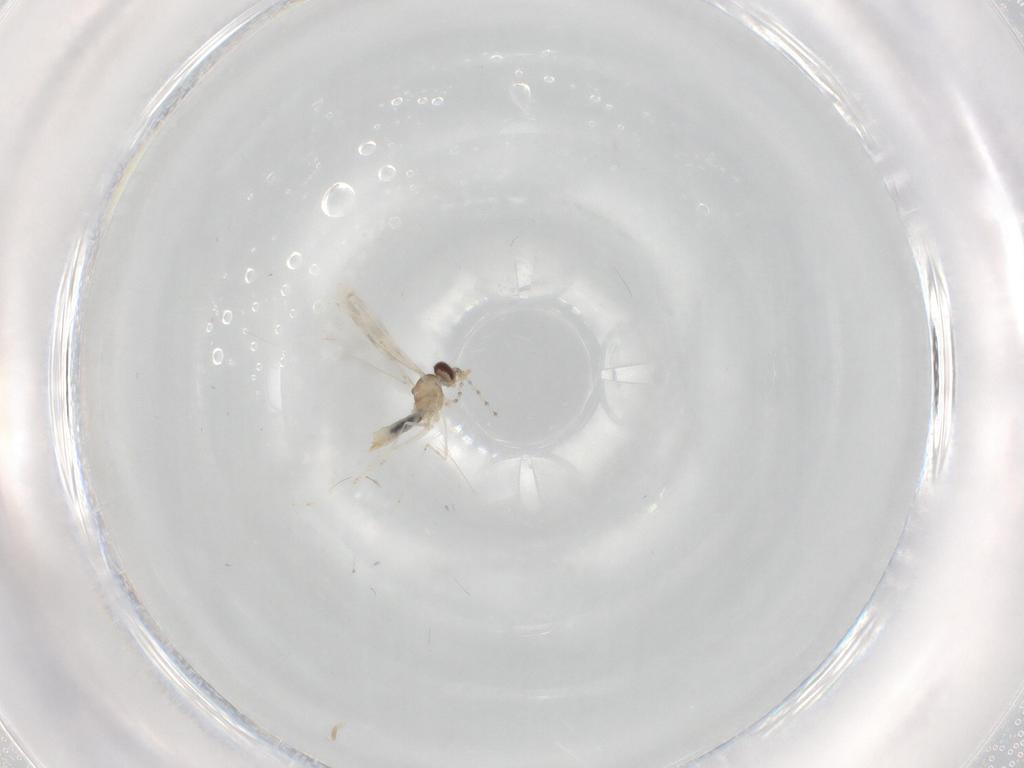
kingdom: Animalia
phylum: Arthropoda
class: Insecta
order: Diptera
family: Cecidomyiidae
